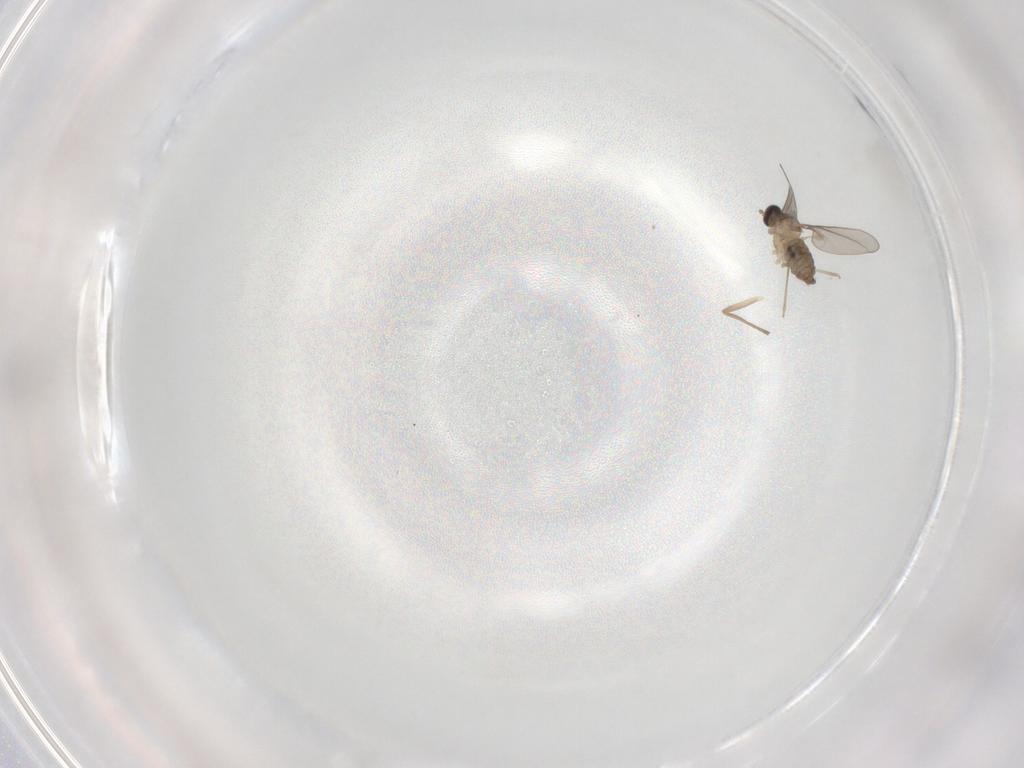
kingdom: Animalia
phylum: Arthropoda
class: Insecta
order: Diptera
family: Cecidomyiidae
